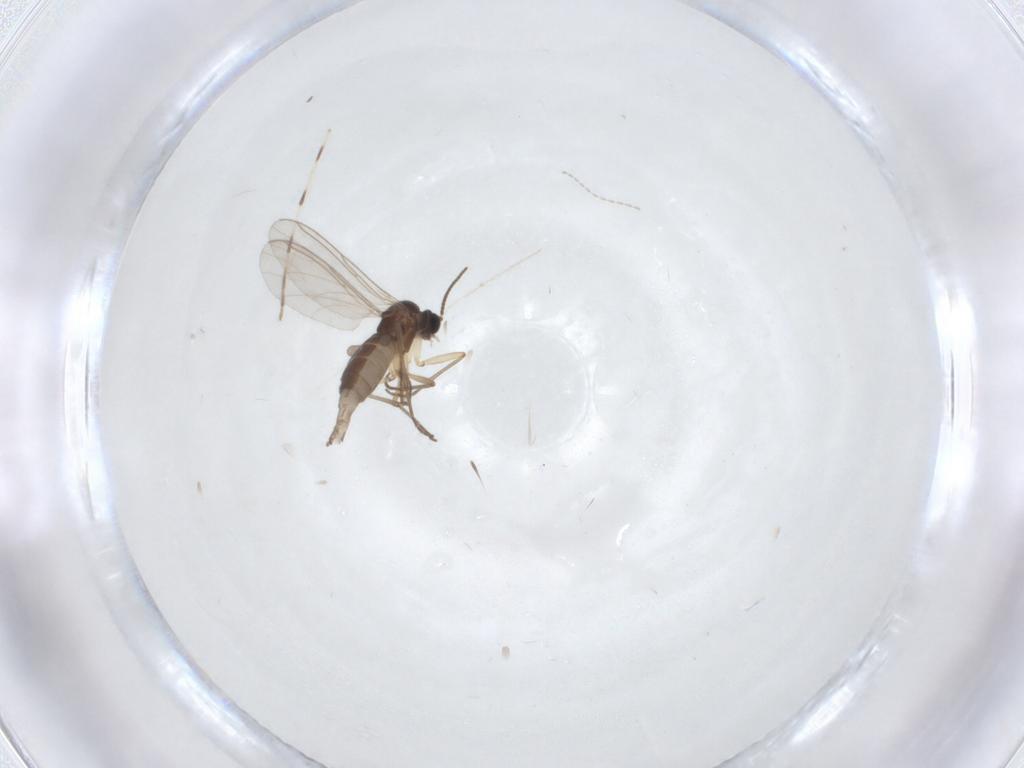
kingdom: Animalia
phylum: Arthropoda
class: Insecta
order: Diptera
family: Sciaridae
